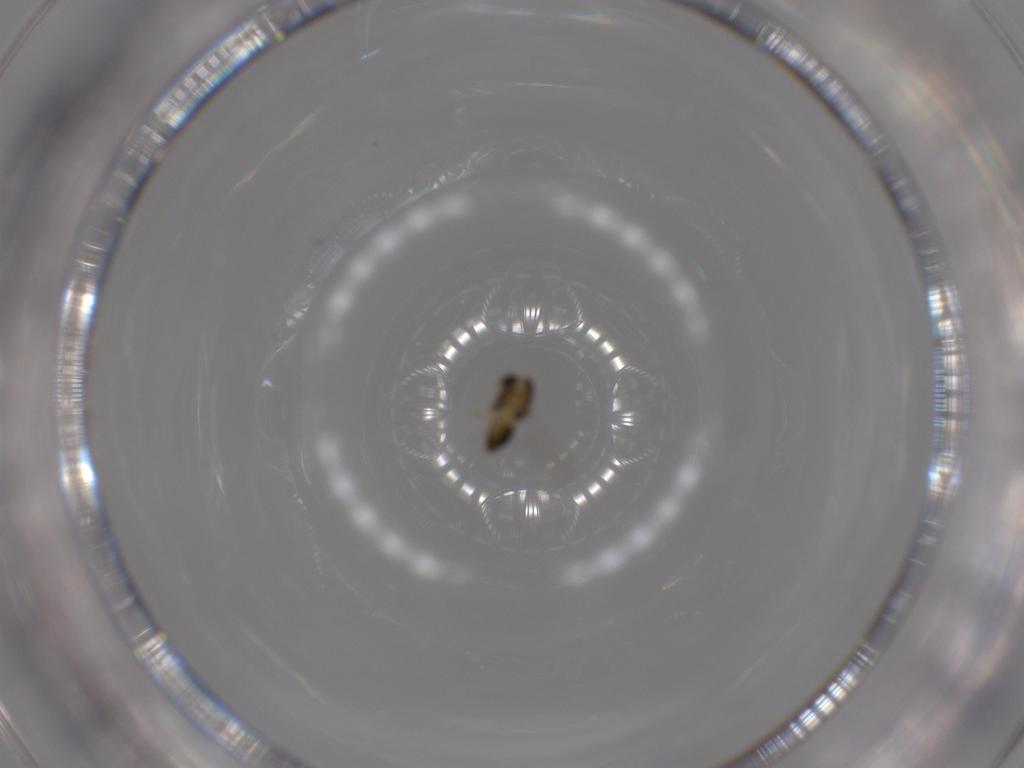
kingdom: Animalia
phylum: Arthropoda
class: Insecta
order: Diptera
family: Chironomidae
